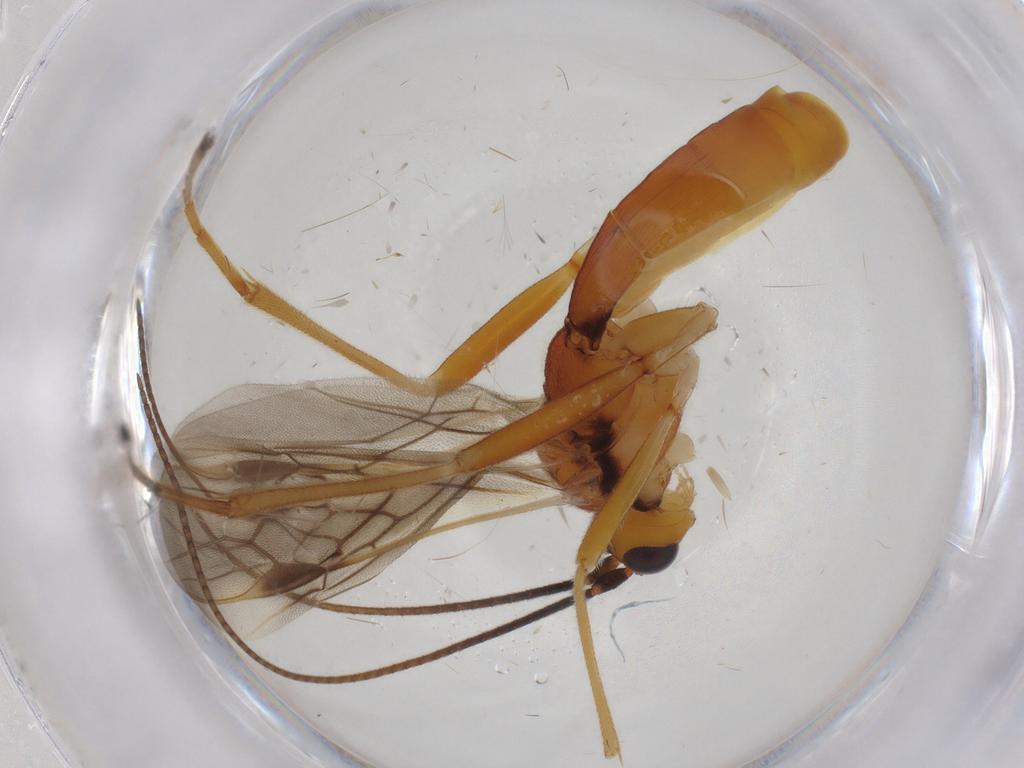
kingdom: Animalia
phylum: Arthropoda
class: Insecta
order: Hymenoptera
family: Braconidae
